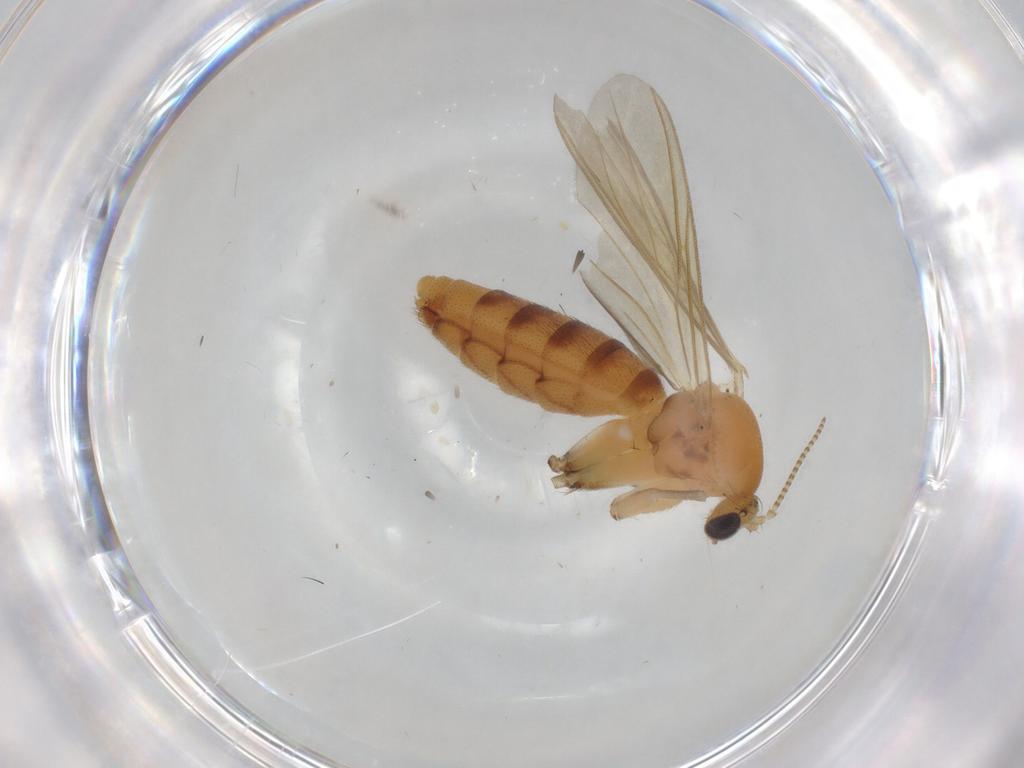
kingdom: Animalia
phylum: Arthropoda
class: Insecta
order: Diptera
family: Mycetophilidae
